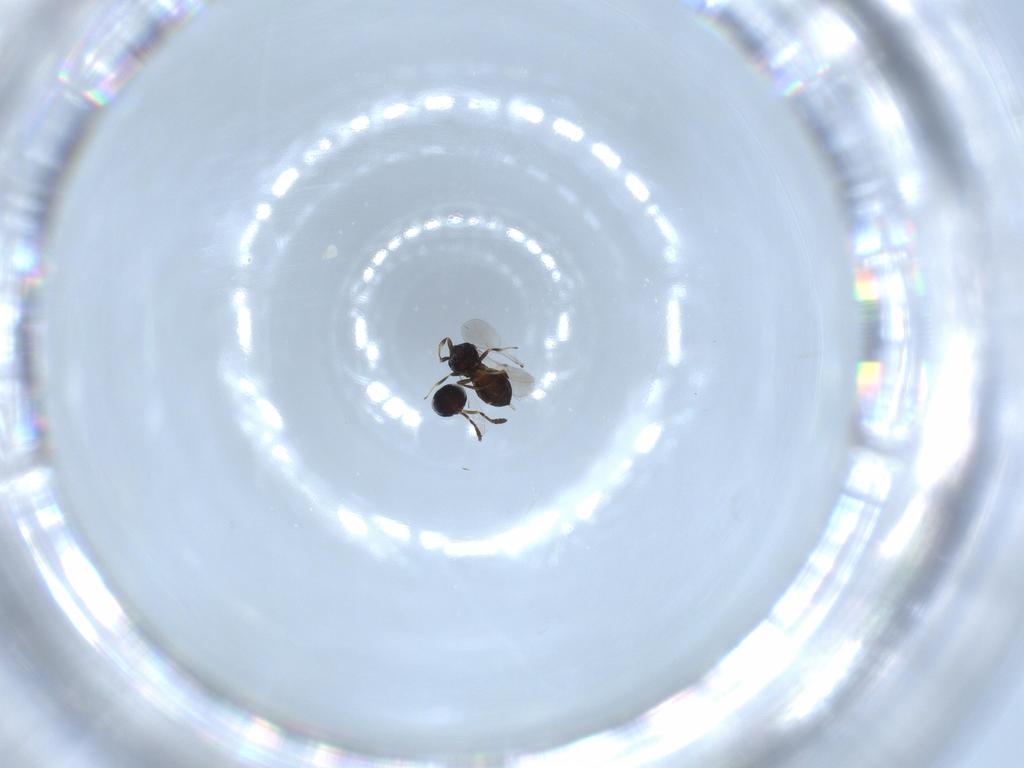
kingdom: Animalia
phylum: Arthropoda
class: Insecta
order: Hymenoptera
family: Scelionidae
